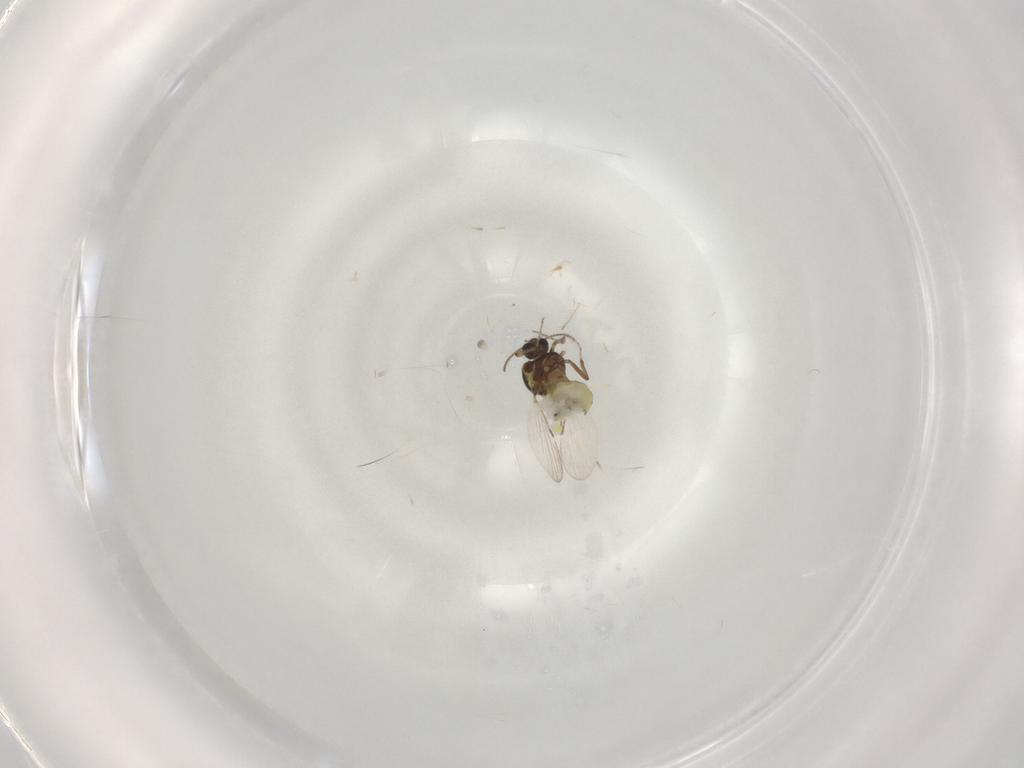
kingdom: Animalia
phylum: Arthropoda
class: Insecta
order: Diptera
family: Ceratopogonidae
